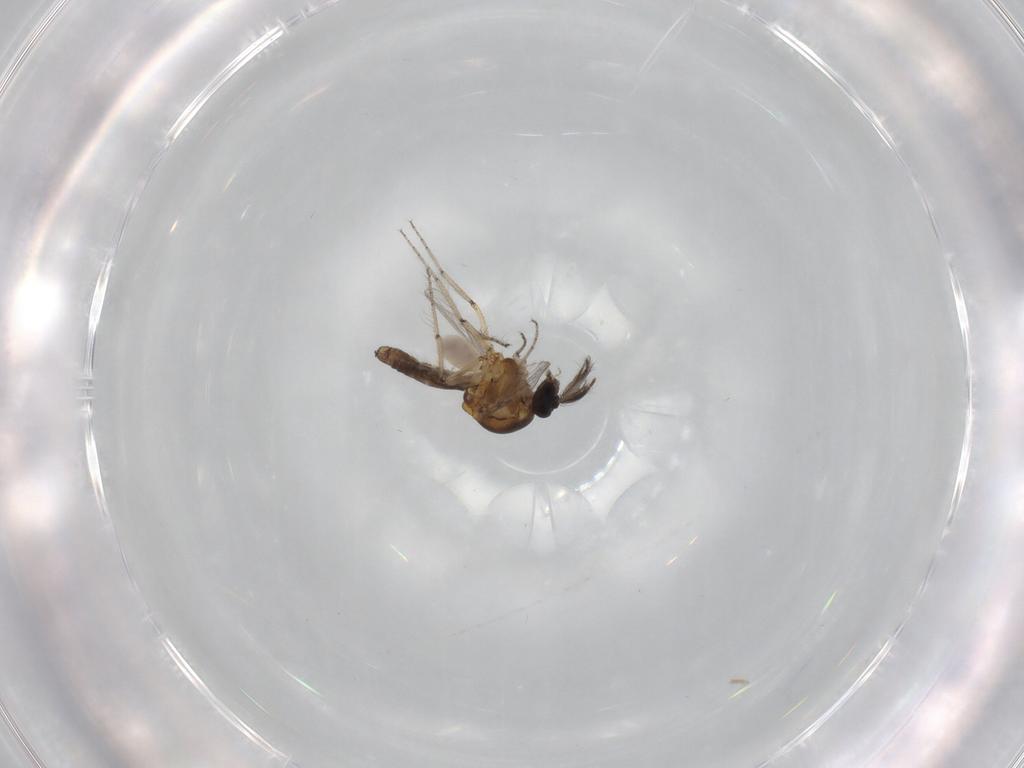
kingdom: Animalia
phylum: Arthropoda
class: Insecta
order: Diptera
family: Ceratopogonidae
